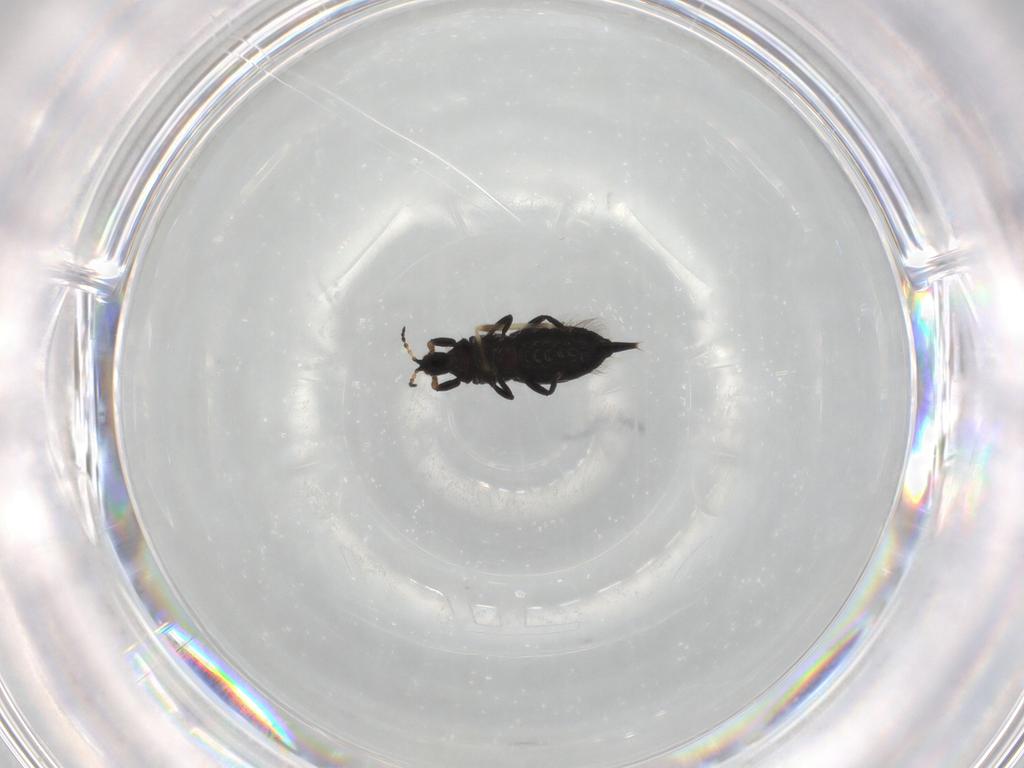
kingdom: Animalia
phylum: Arthropoda
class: Insecta
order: Thysanoptera
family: Phlaeothripidae
